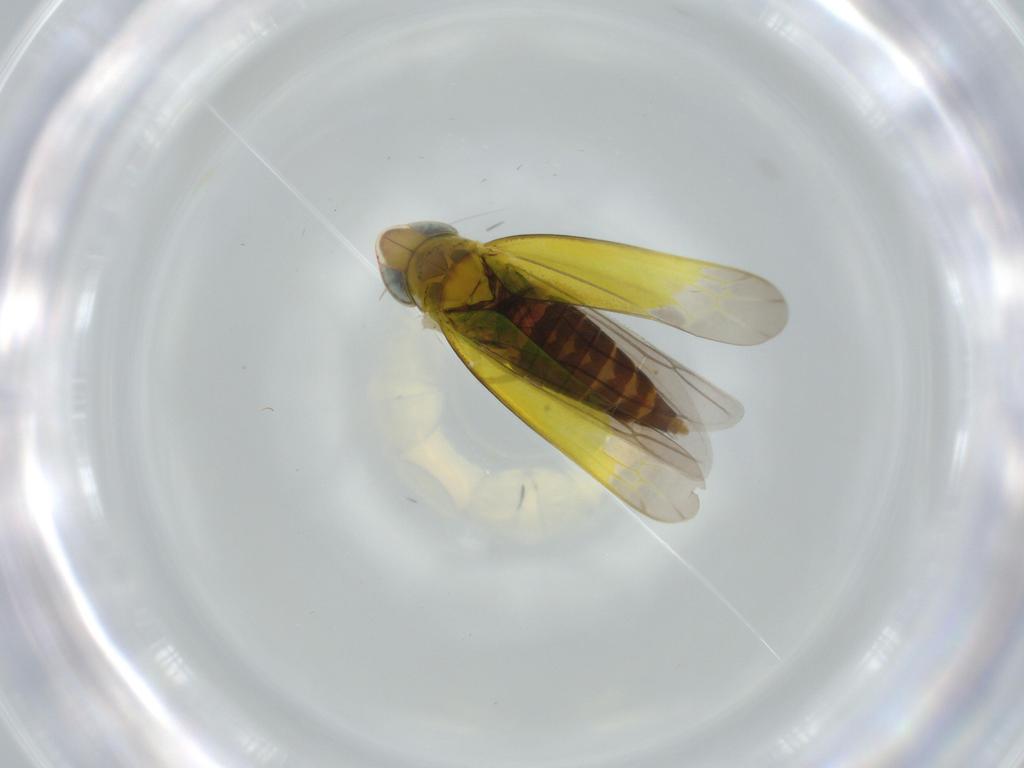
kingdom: Animalia
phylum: Arthropoda
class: Insecta
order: Hemiptera
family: Cicadellidae
